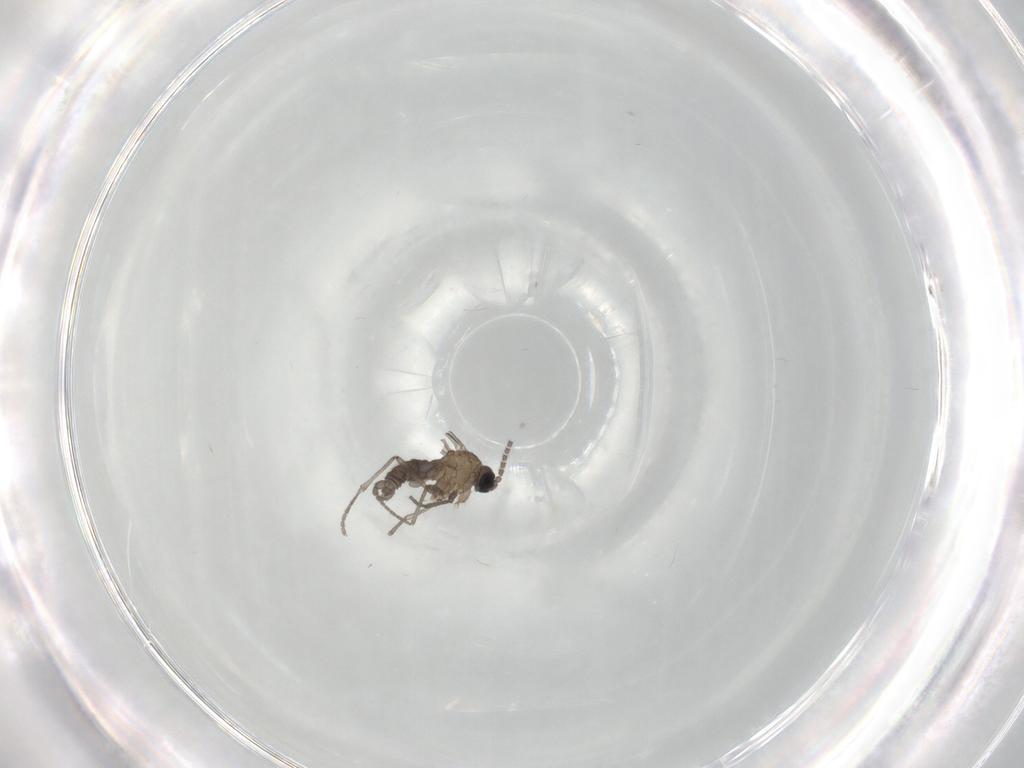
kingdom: Animalia
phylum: Arthropoda
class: Insecta
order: Diptera
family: Sciaridae
